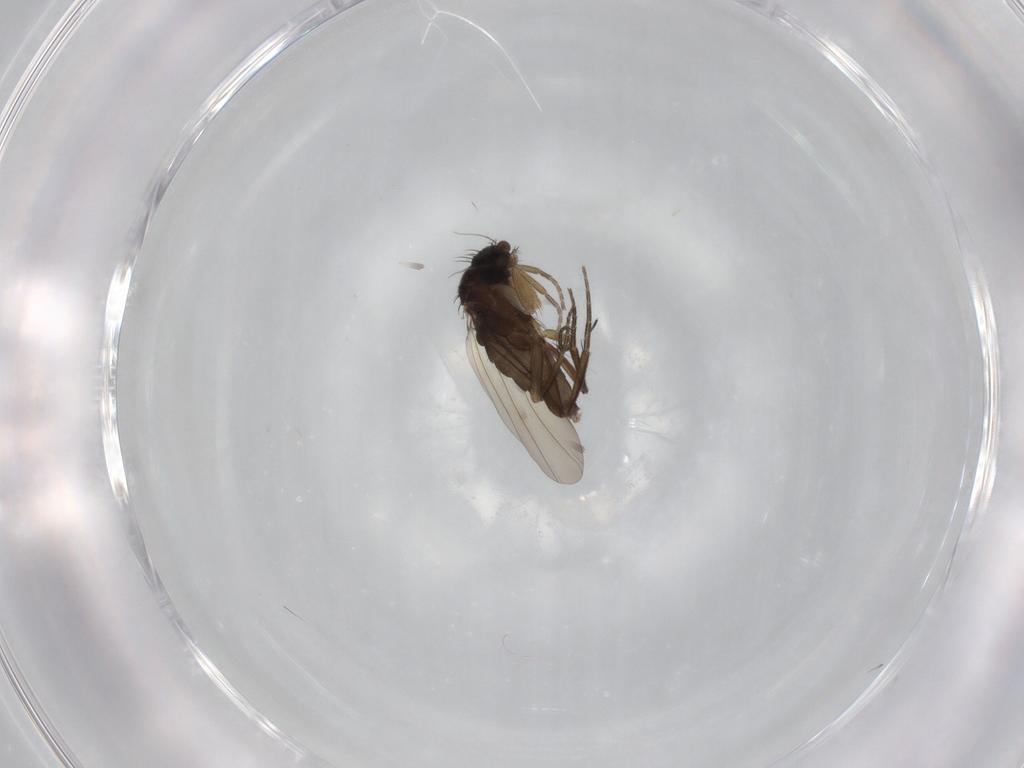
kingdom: Animalia
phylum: Arthropoda
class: Insecta
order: Diptera
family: Phoridae
